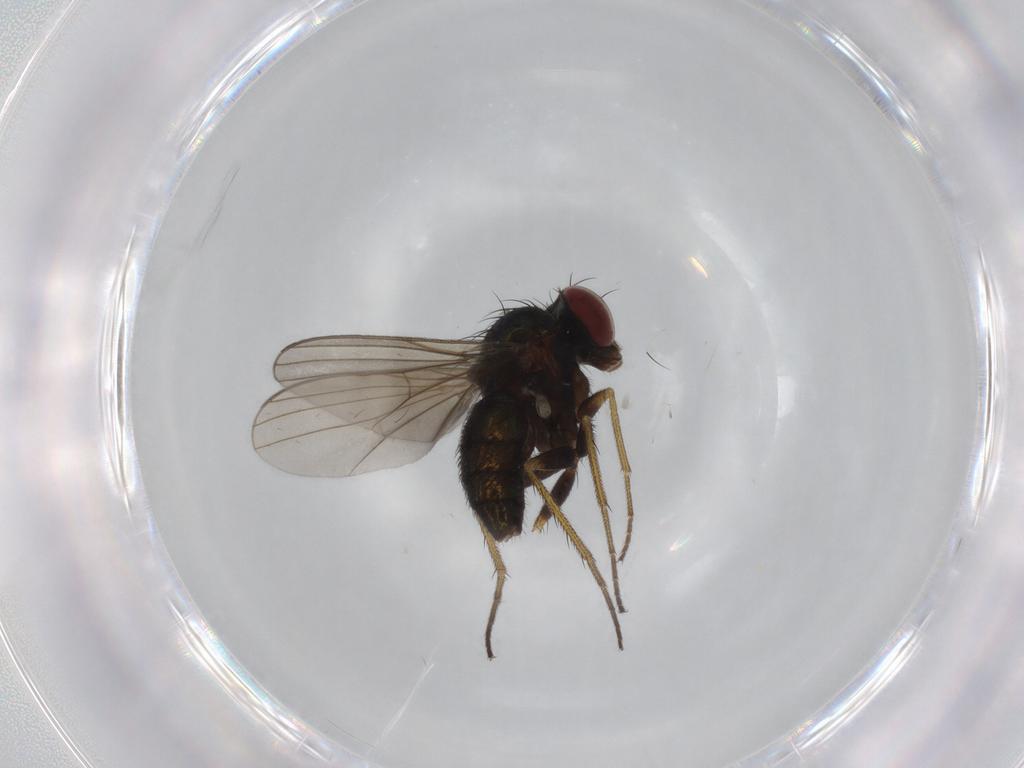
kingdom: Animalia
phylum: Arthropoda
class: Insecta
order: Diptera
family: Dolichopodidae
